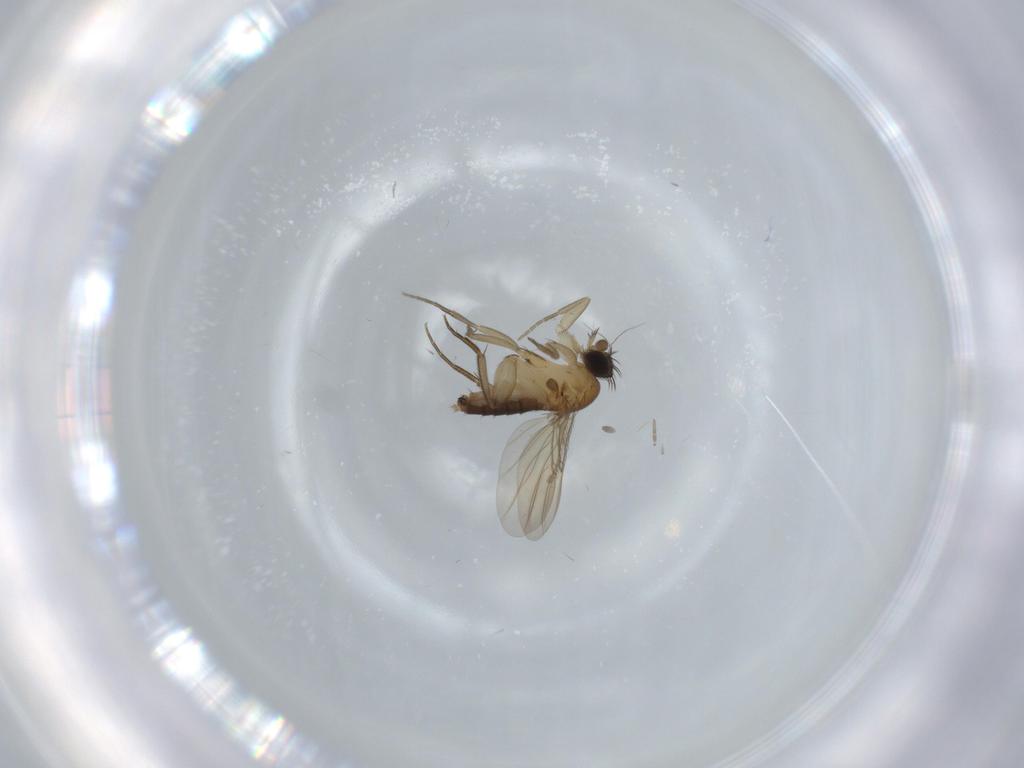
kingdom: Animalia
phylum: Arthropoda
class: Insecta
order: Diptera
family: Phoridae
